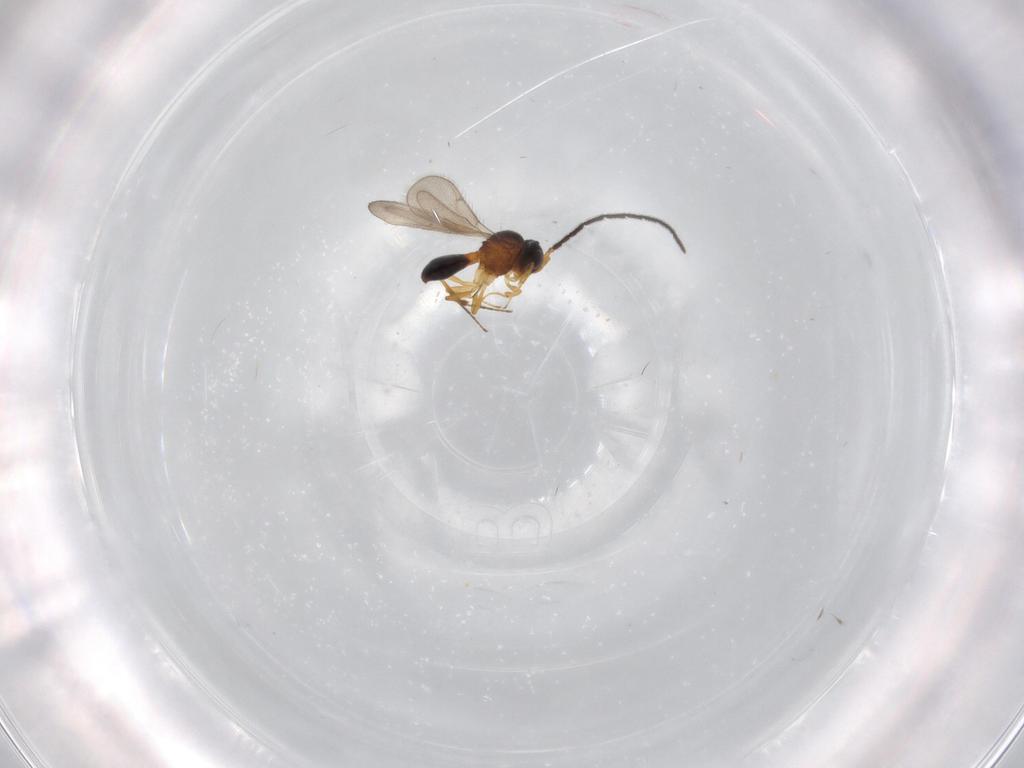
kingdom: Animalia
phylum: Arthropoda
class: Insecta
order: Hymenoptera
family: Scelionidae
